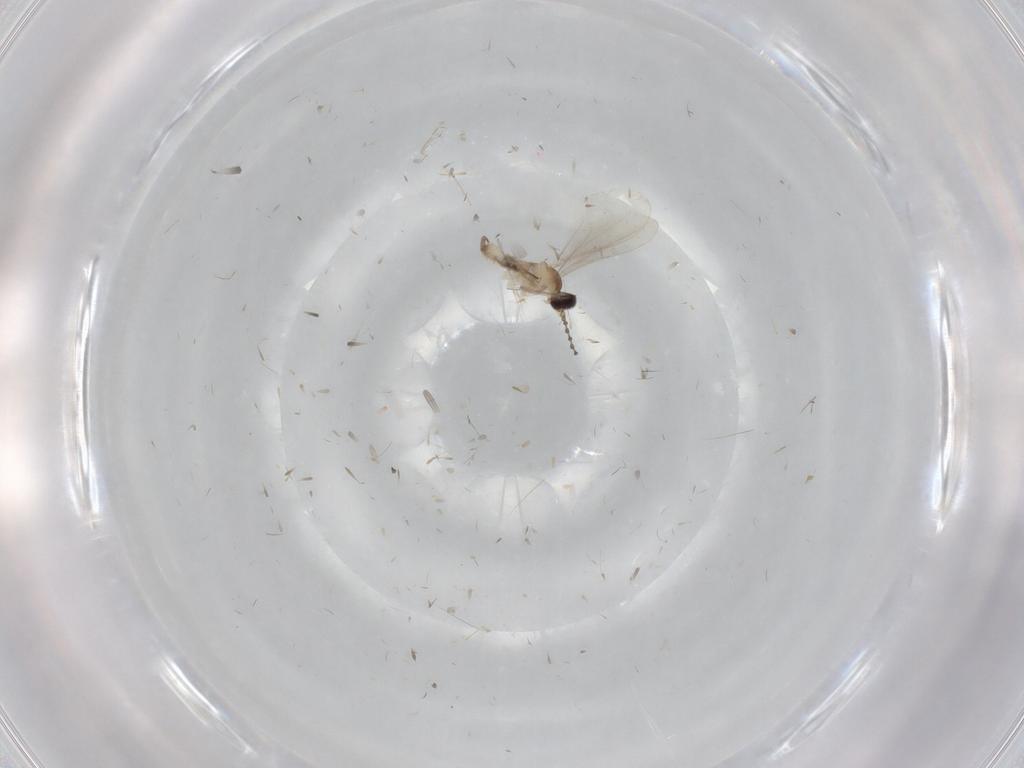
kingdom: Animalia
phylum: Arthropoda
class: Insecta
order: Diptera
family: Cecidomyiidae
